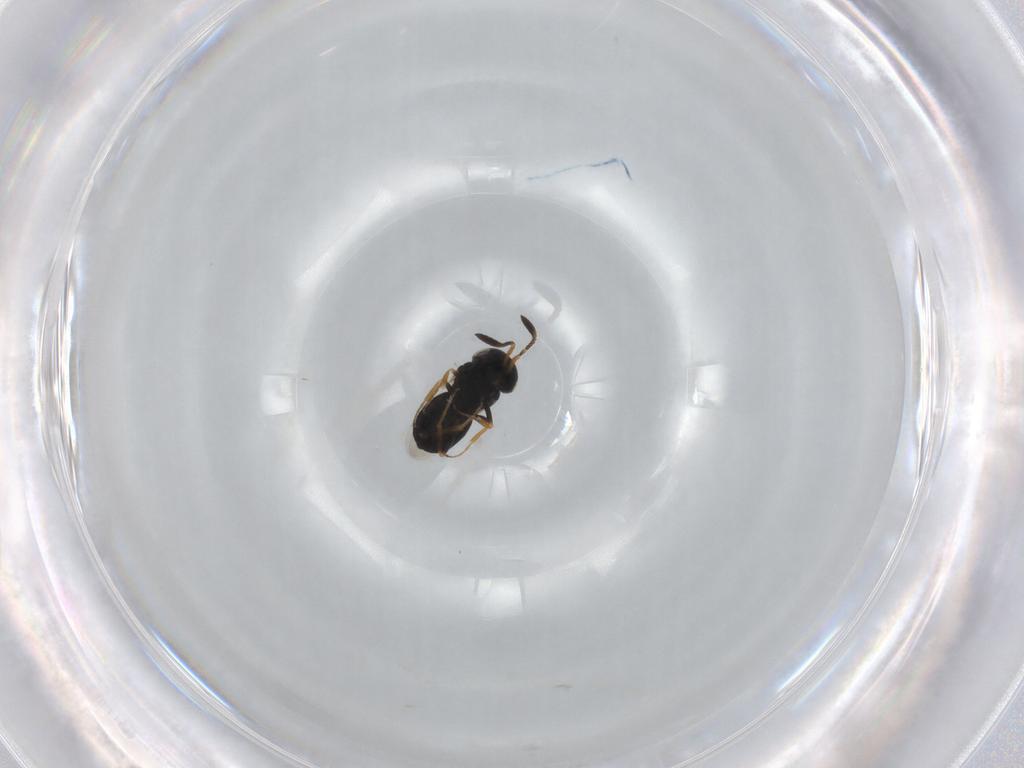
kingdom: Animalia
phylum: Arthropoda
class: Insecta
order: Hymenoptera
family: Scelionidae
